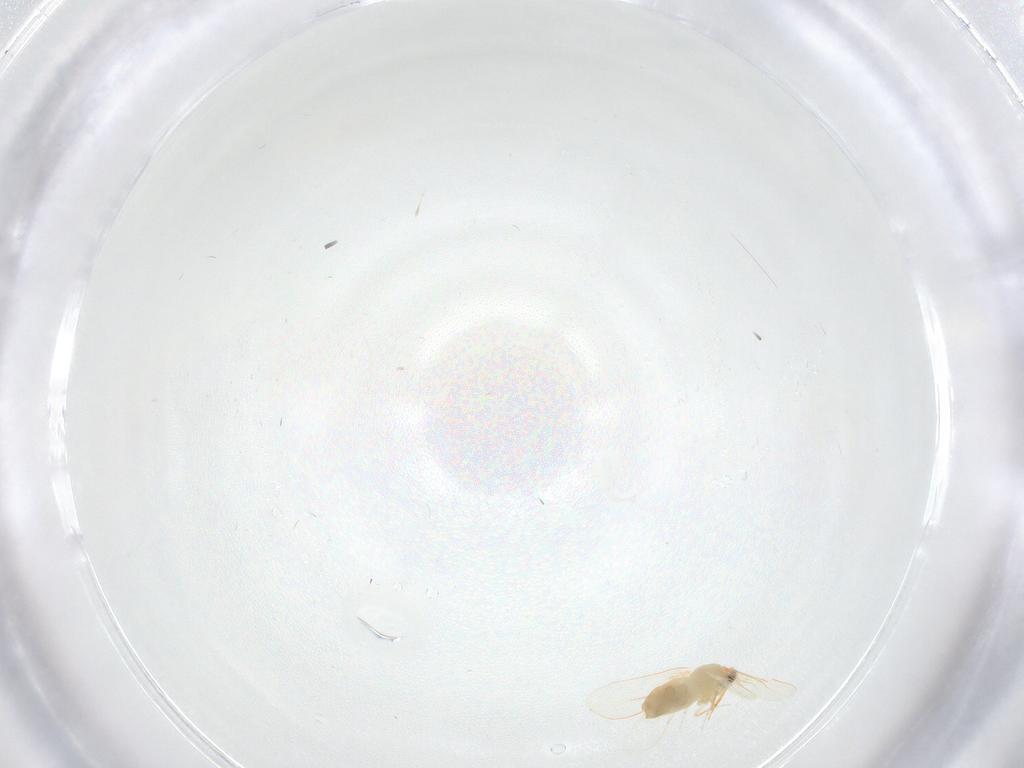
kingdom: Animalia
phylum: Arthropoda
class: Insecta
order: Hemiptera
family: Aleyrodidae
